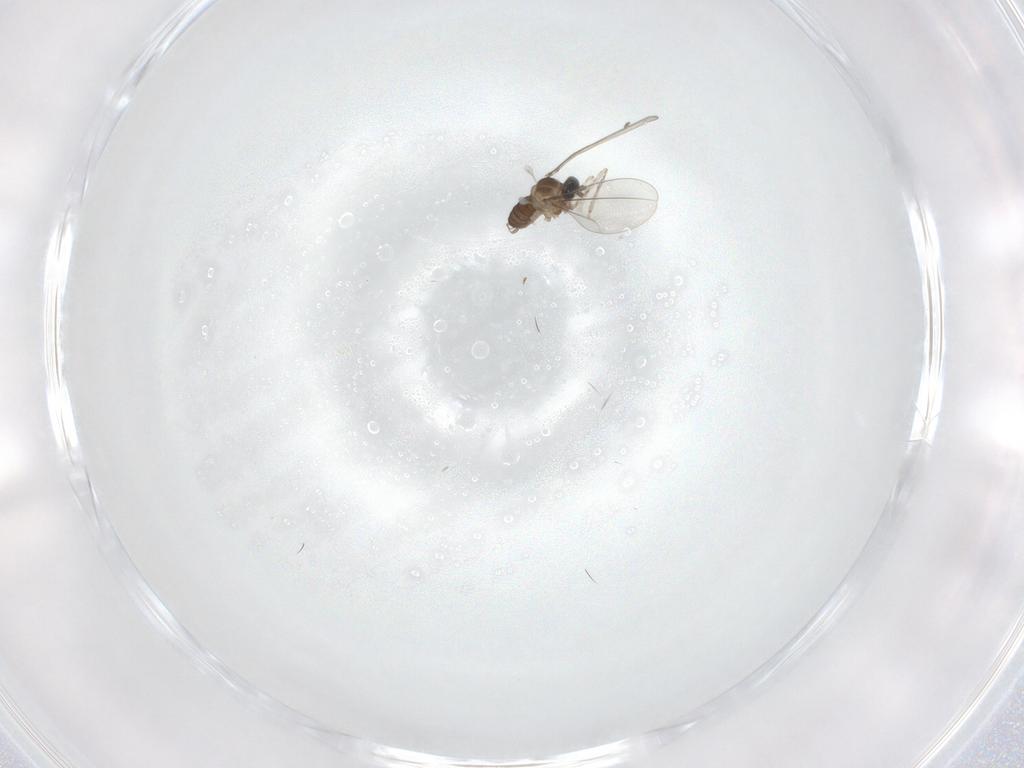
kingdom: Animalia
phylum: Arthropoda
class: Insecta
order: Diptera
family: Cecidomyiidae
